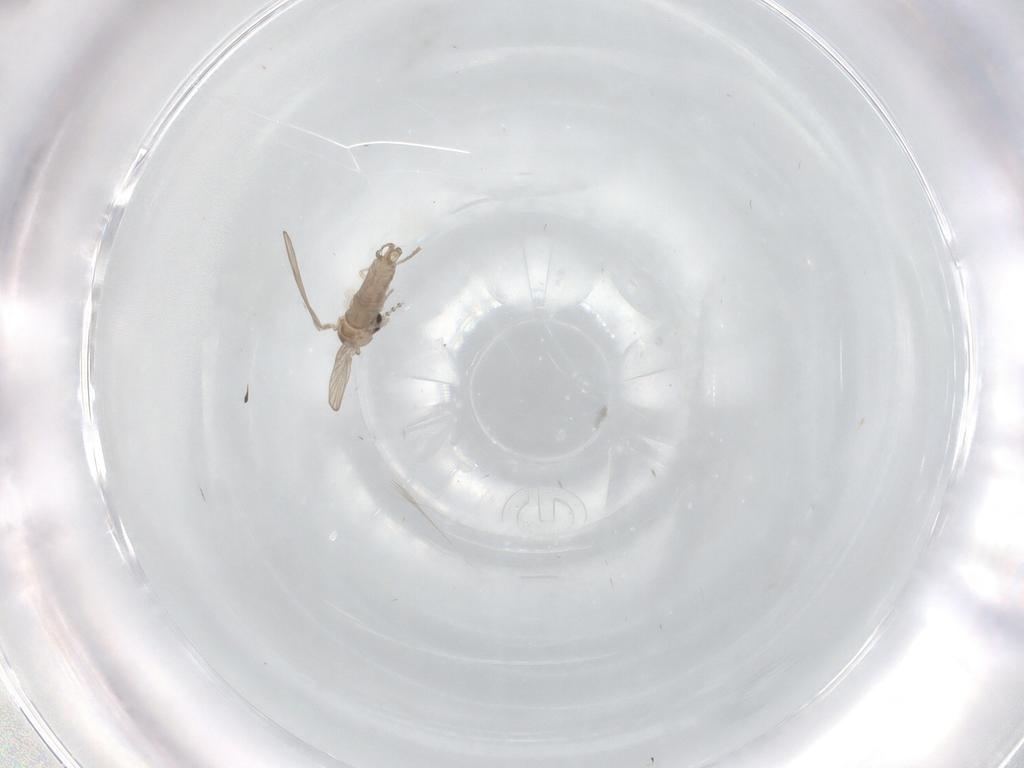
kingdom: Animalia
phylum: Arthropoda
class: Insecta
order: Diptera
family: Psychodidae
